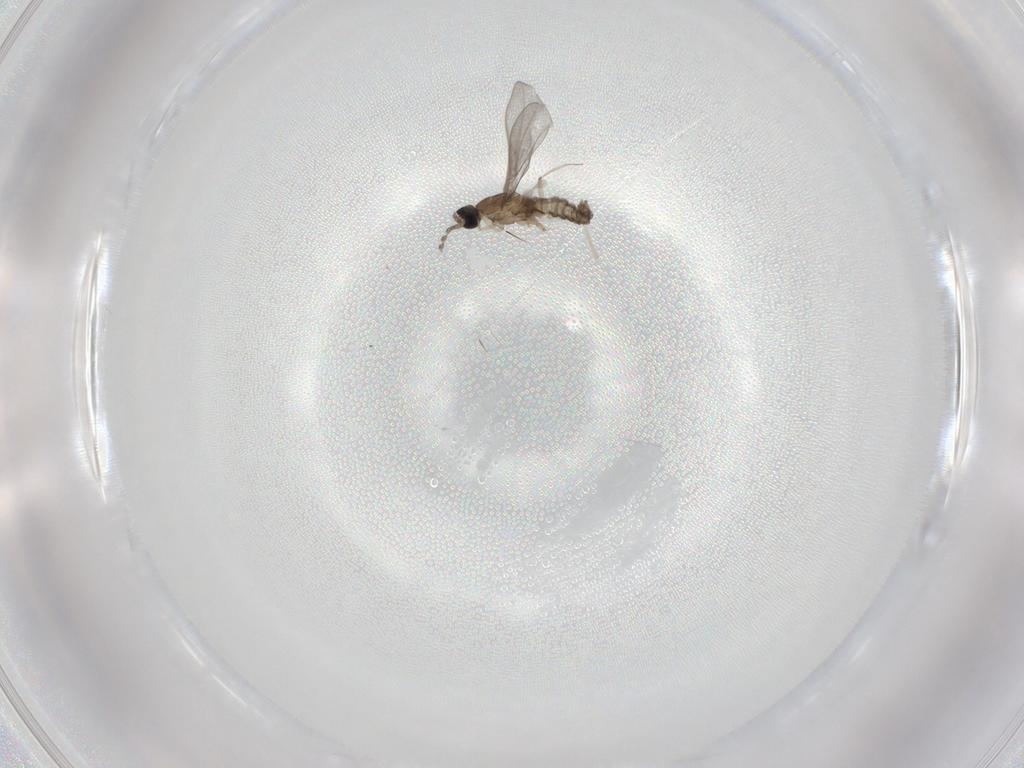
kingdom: Animalia
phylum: Arthropoda
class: Insecta
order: Diptera
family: Cecidomyiidae
